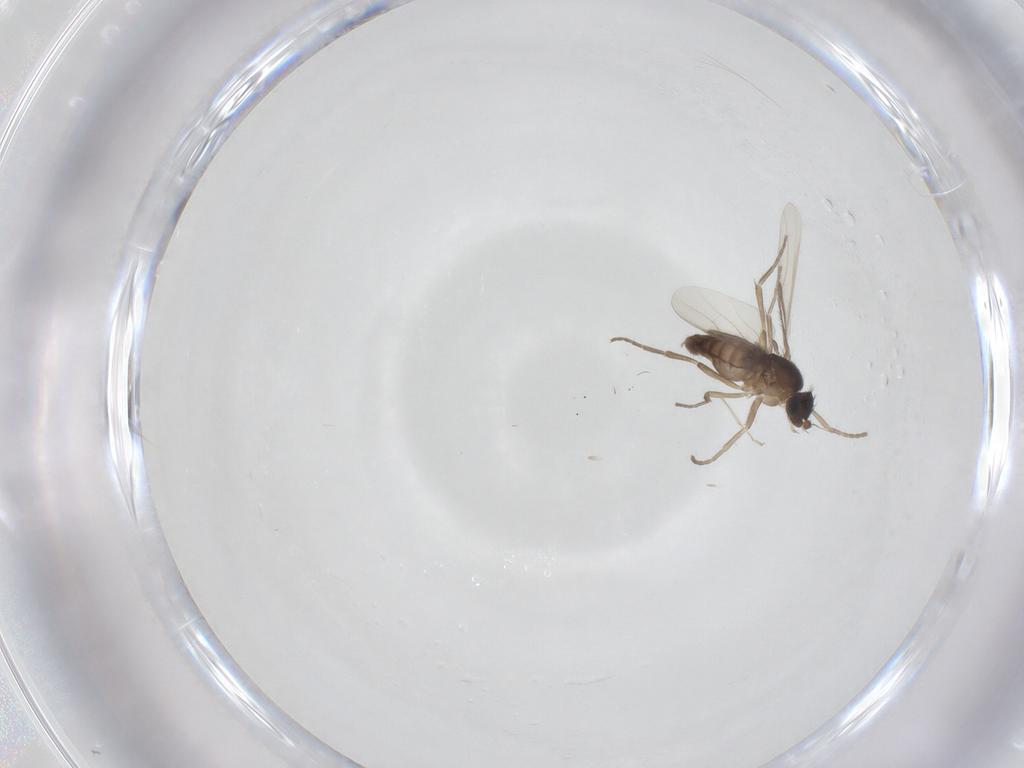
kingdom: Animalia
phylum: Arthropoda
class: Insecta
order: Diptera
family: Phoridae
